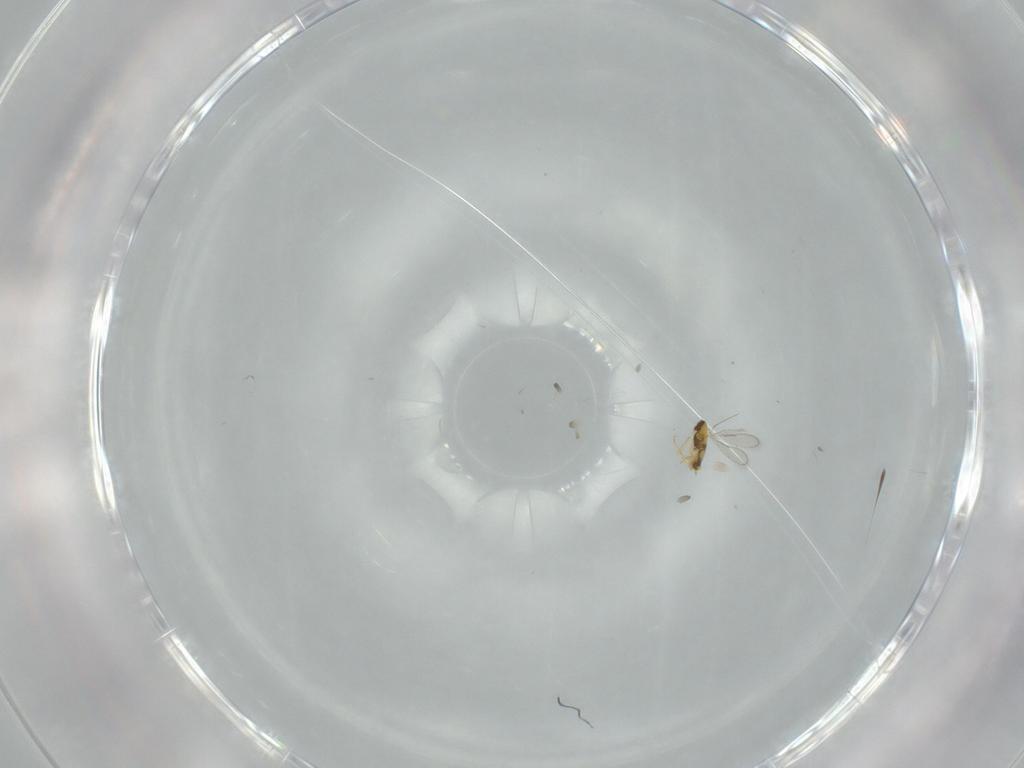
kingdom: Animalia
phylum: Arthropoda
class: Insecta
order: Hymenoptera
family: Aphelinidae
